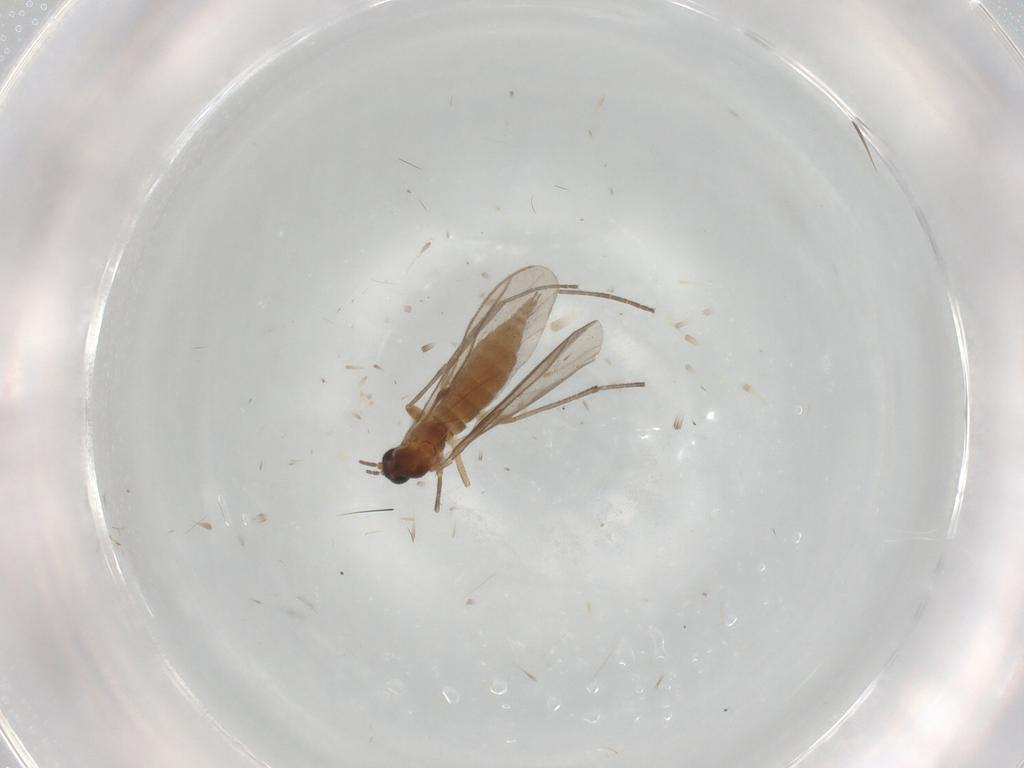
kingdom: Animalia
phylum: Arthropoda
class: Insecta
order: Diptera
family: Sciaridae
